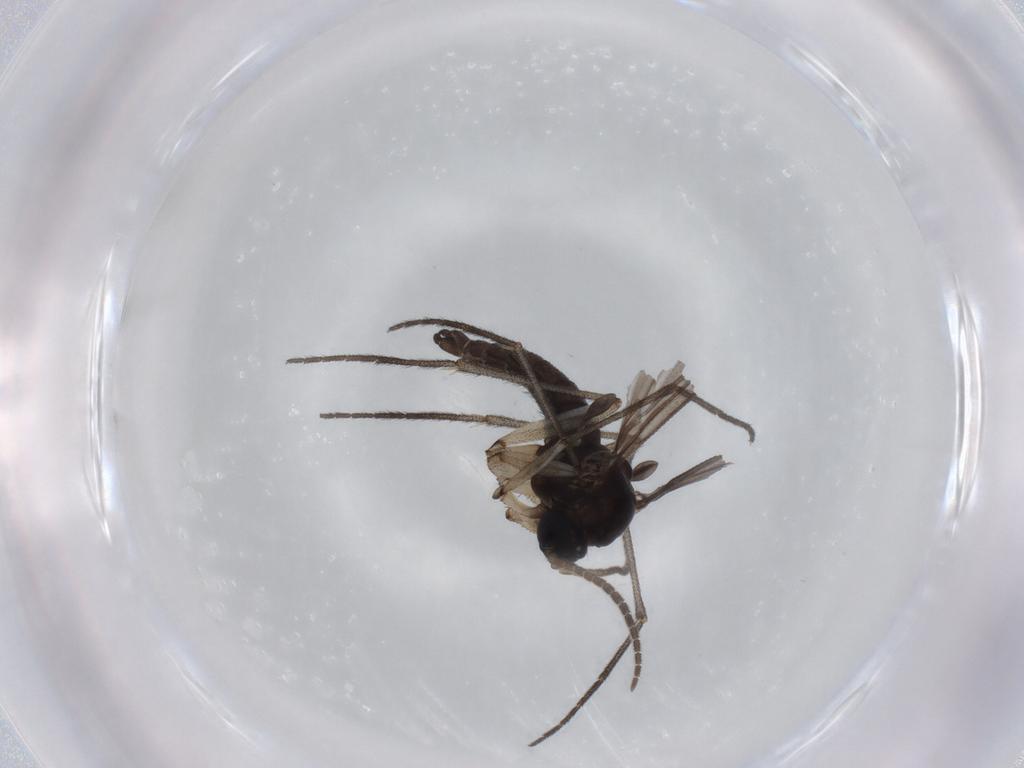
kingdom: Animalia
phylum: Arthropoda
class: Insecta
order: Diptera
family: Sciaridae
